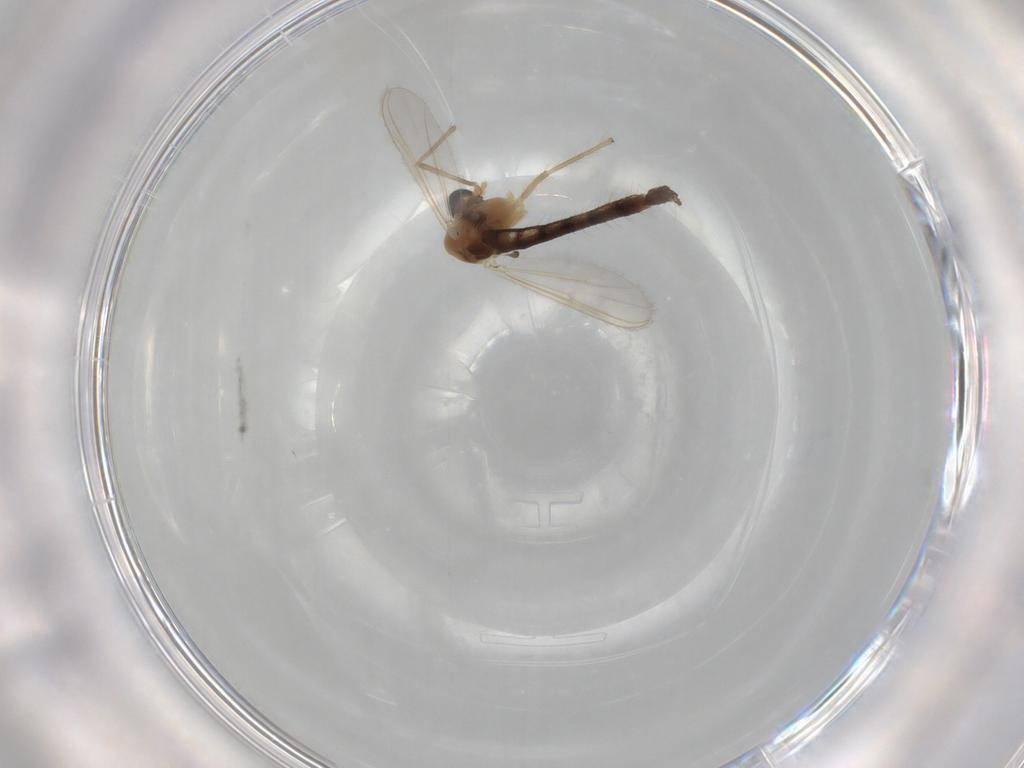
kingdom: Animalia
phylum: Arthropoda
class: Insecta
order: Diptera
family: Chironomidae
